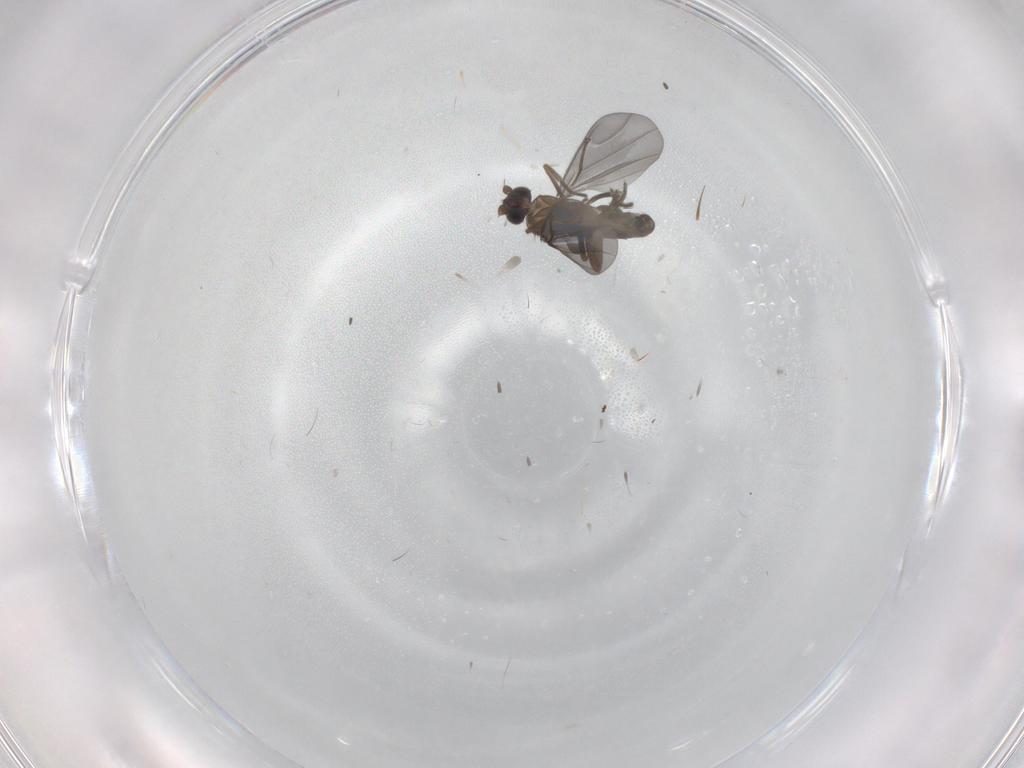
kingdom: Animalia
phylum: Arthropoda
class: Insecta
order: Diptera
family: Phoridae
